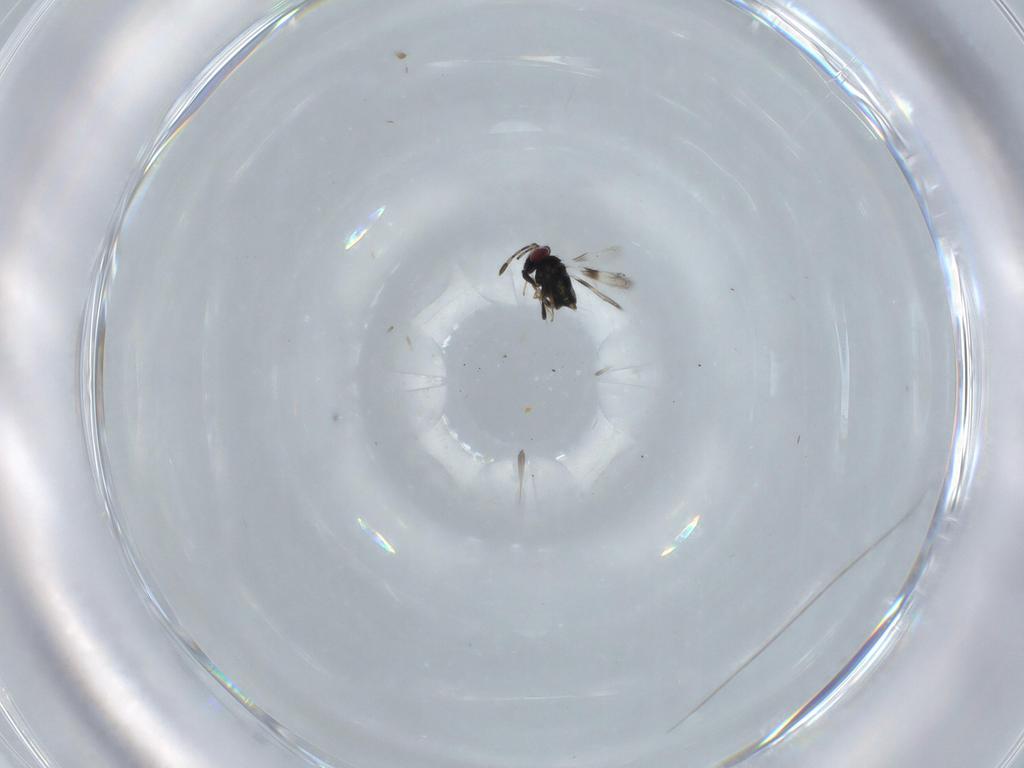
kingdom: Animalia
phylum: Arthropoda
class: Insecta
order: Hymenoptera
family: Azotidae
